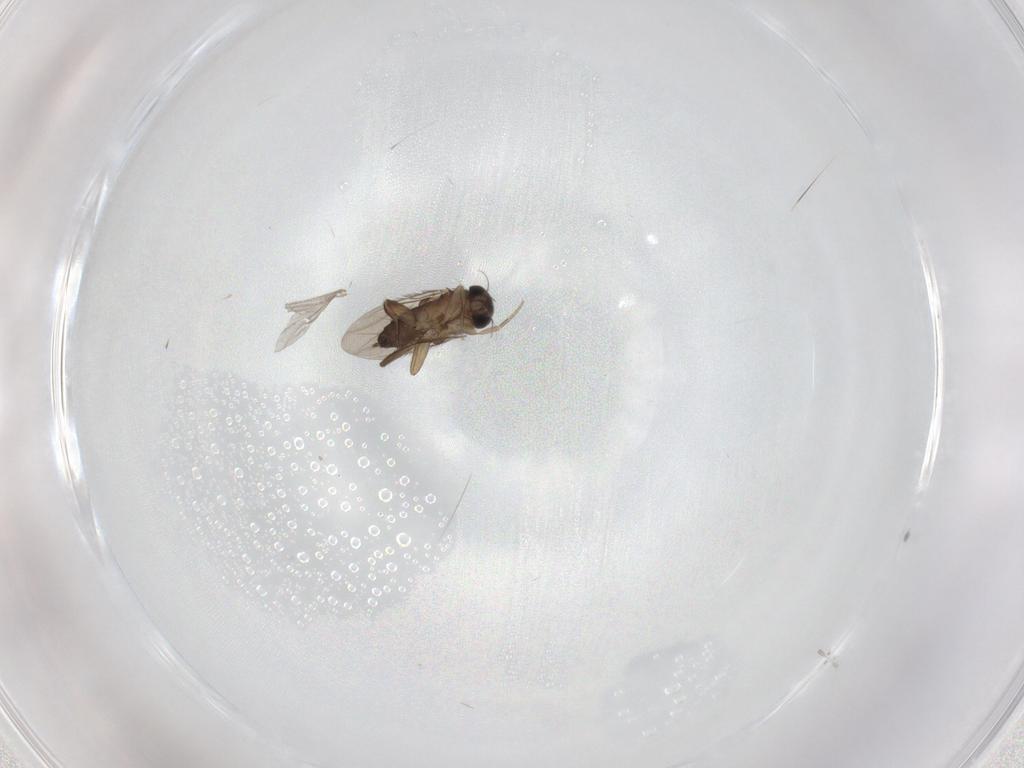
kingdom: Animalia
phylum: Arthropoda
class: Insecta
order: Diptera
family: Phoridae
